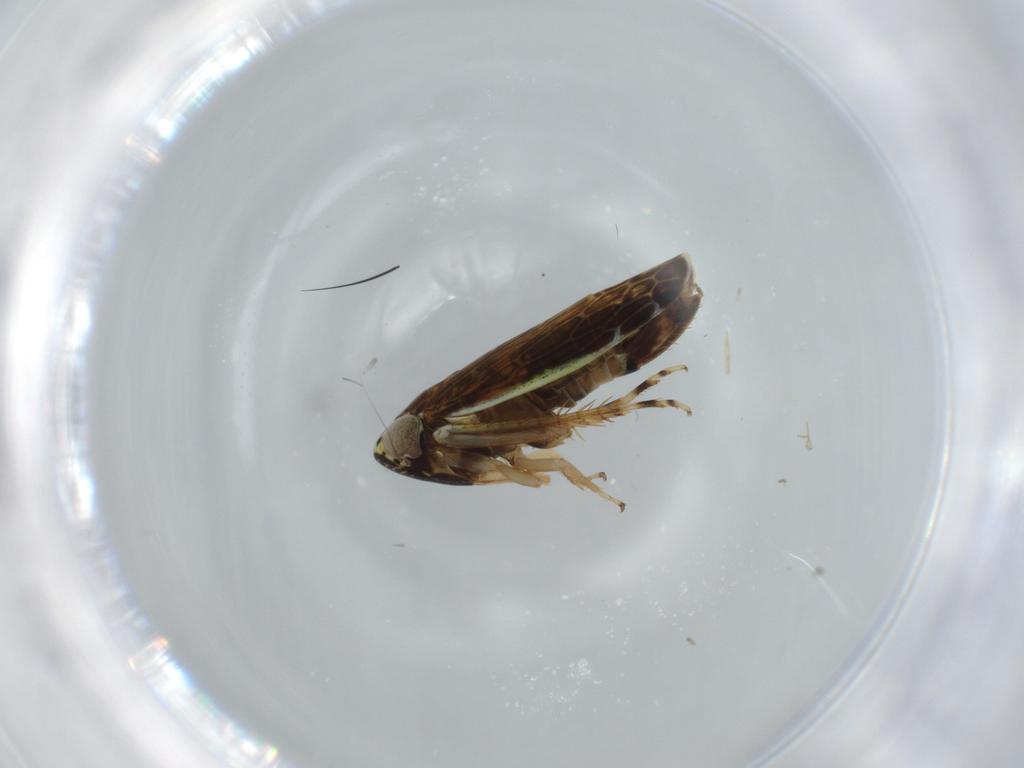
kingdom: Animalia
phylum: Arthropoda
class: Insecta
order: Hemiptera
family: Cicadellidae
